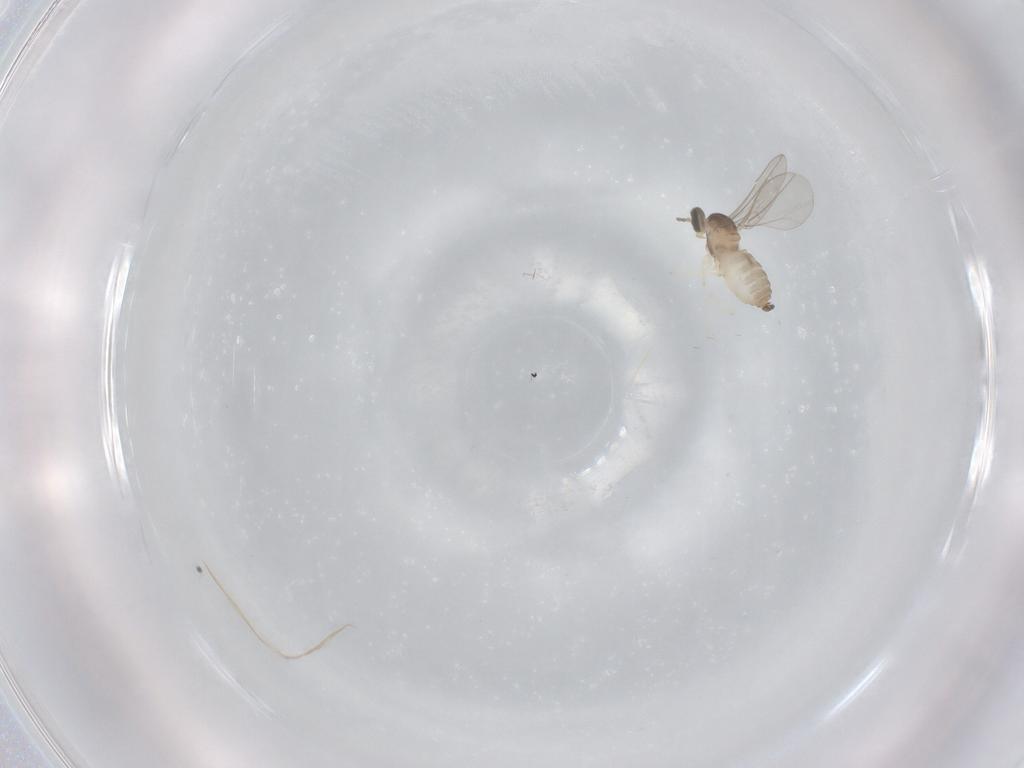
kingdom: Animalia
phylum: Arthropoda
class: Insecta
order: Diptera
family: Cecidomyiidae
